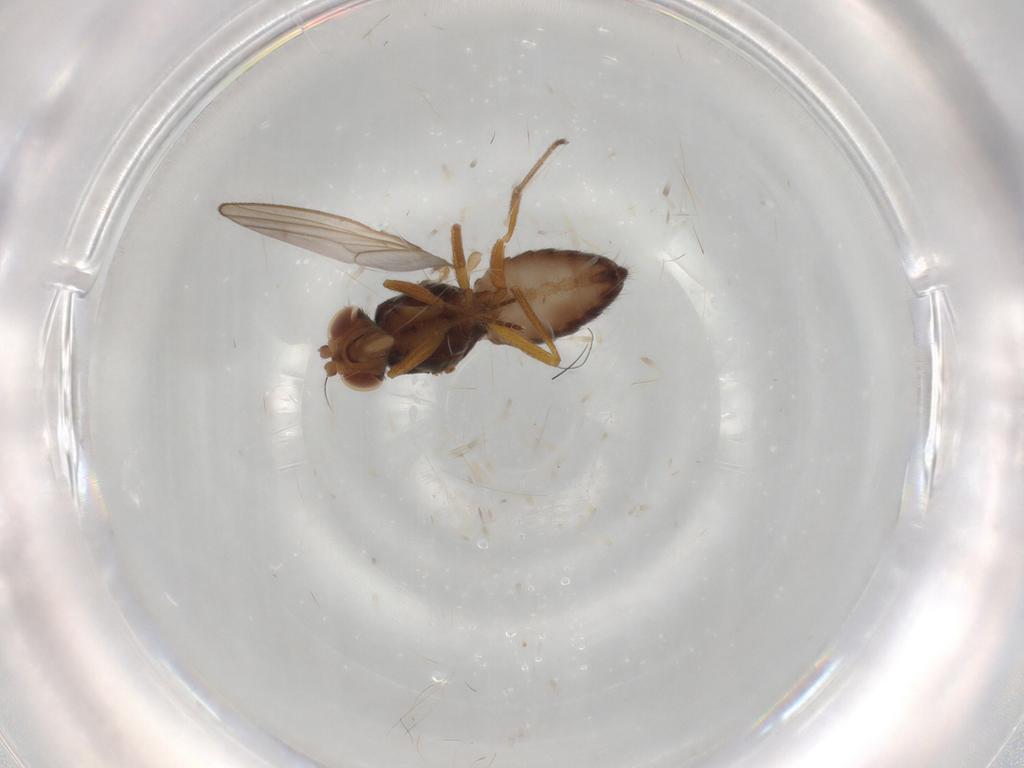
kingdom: Animalia
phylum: Arthropoda
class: Insecta
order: Diptera
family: Drosophilidae
